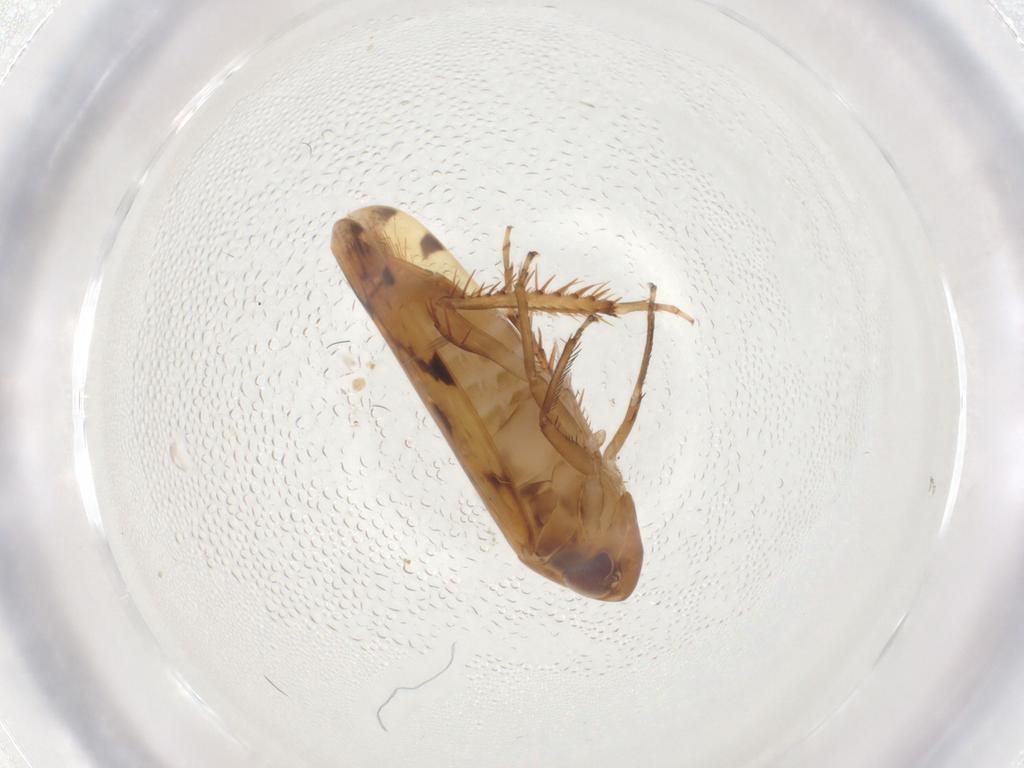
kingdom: Animalia
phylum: Arthropoda
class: Insecta
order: Hemiptera
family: Cicadellidae
